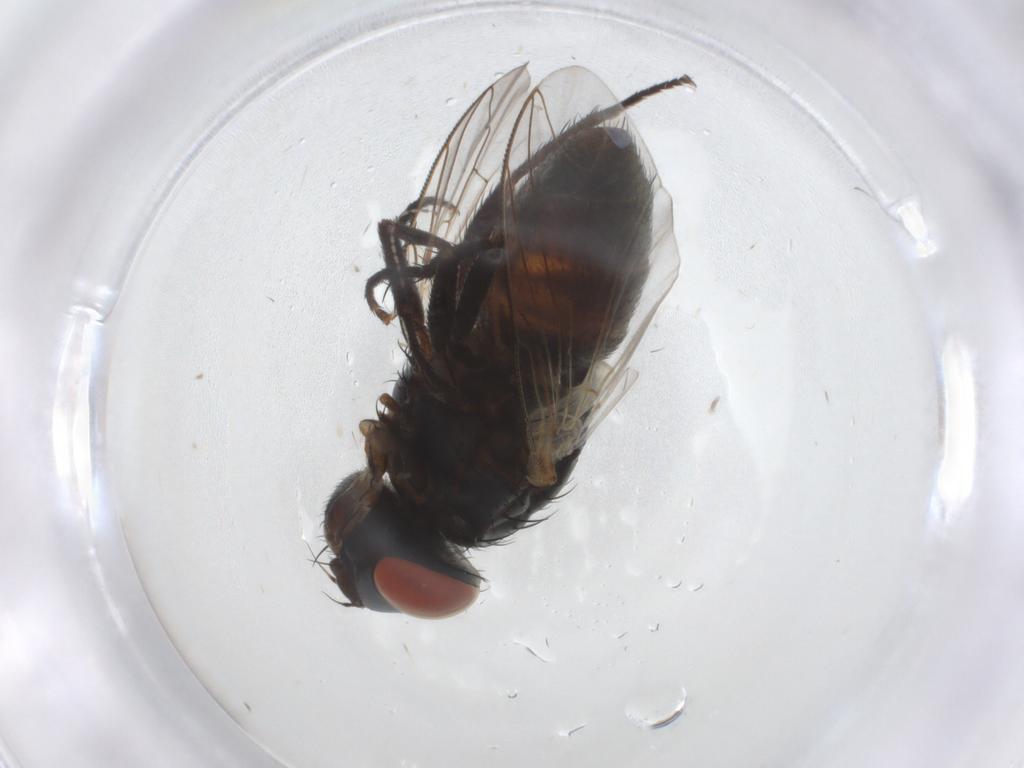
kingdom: Animalia
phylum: Arthropoda
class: Insecta
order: Diptera
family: Sarcophagidae
